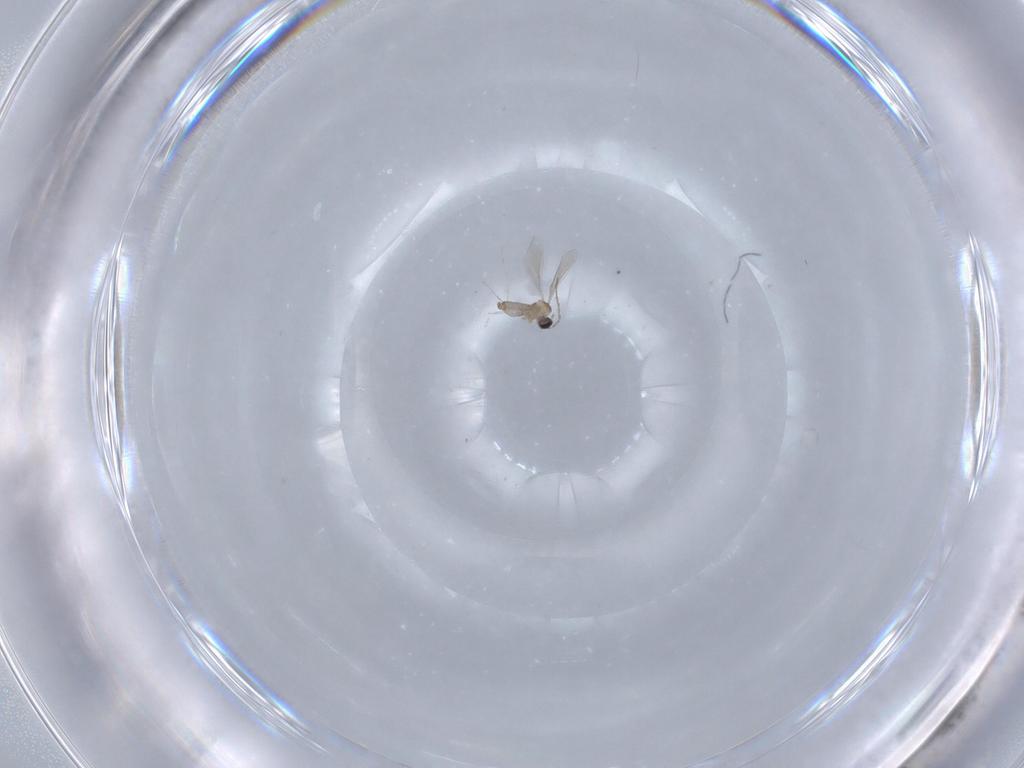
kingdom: Animalia
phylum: Arthropoda
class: Insecta
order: Diptera
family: Cecidomyiidae
